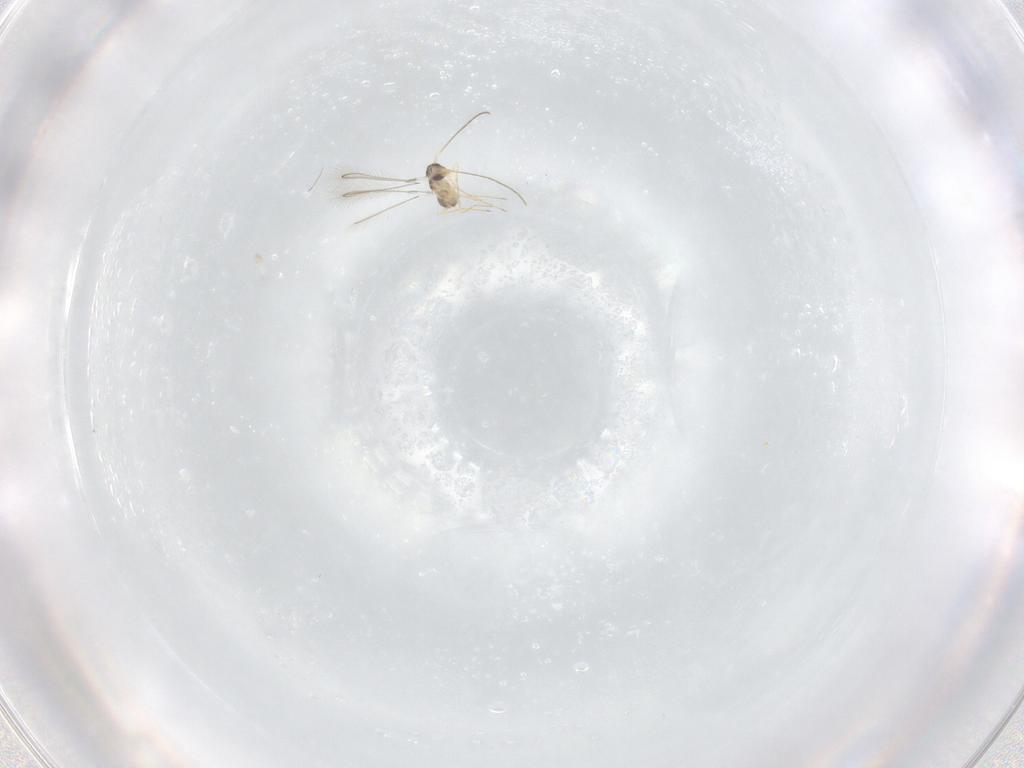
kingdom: Animalia
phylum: Arthropoda
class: Insecta
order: Hymenoptera
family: Mymaridae
